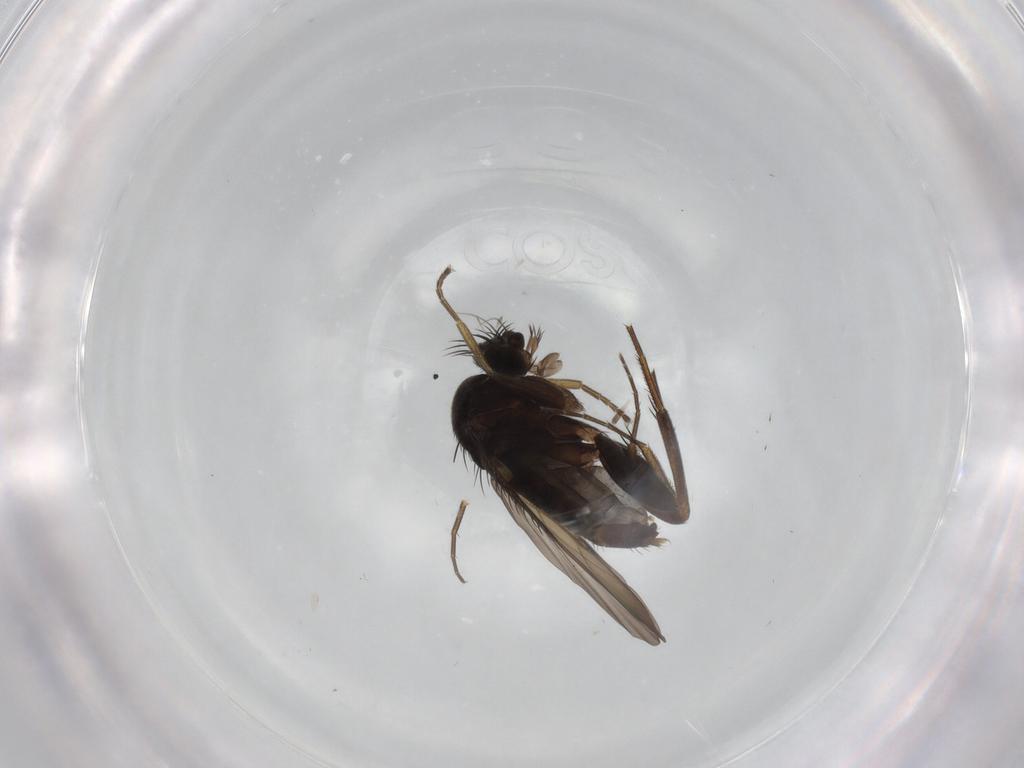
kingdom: Animalia
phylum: Arthropoda
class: Insecta
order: Diptera
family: Phoridae
